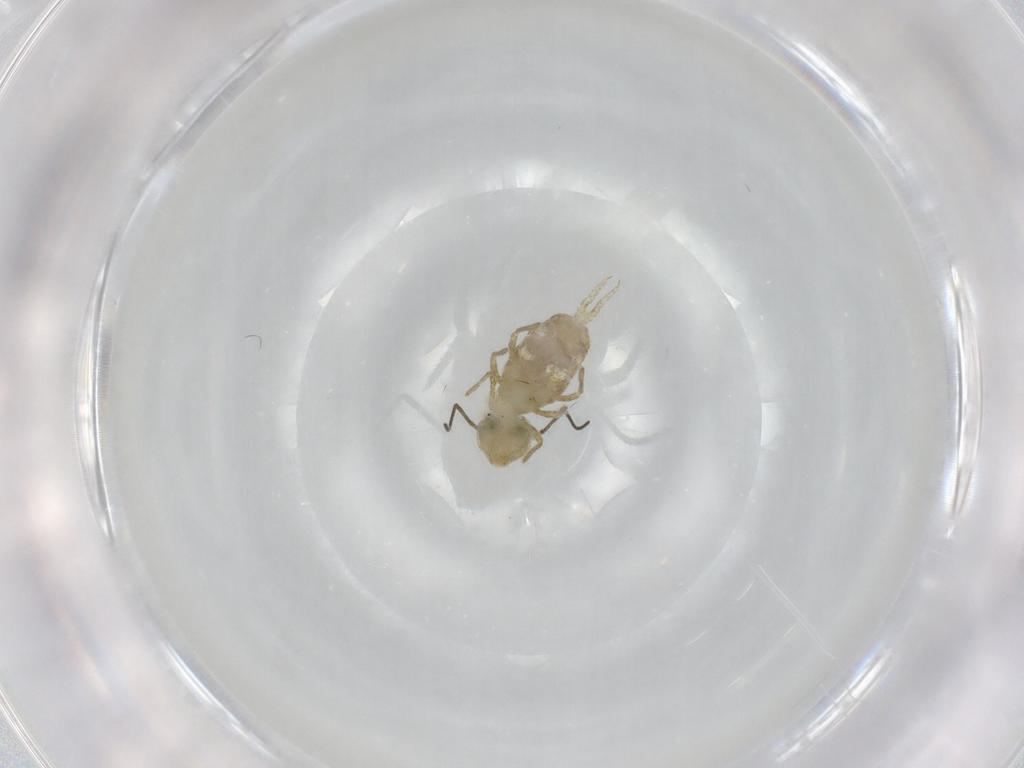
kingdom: Animalia
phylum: Arthropoda
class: Collembola
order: Symphypleona
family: Sminthuridae
